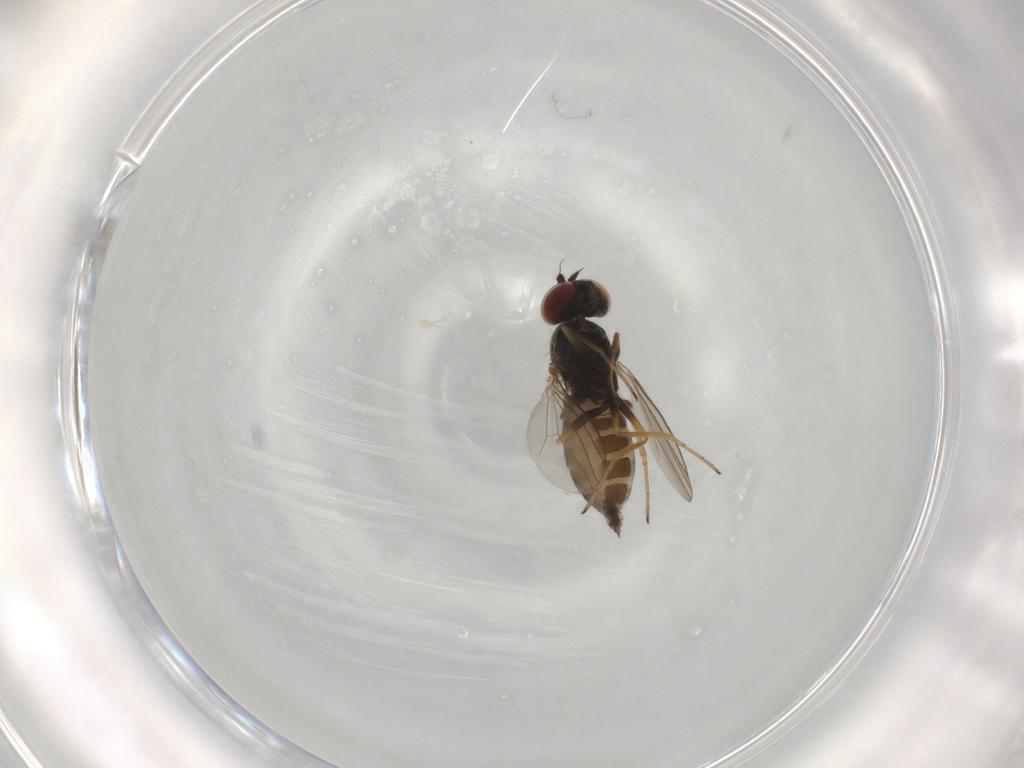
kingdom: Animalia
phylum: Arthropoda
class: Insecta
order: Diptera
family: Dolichopodidae
